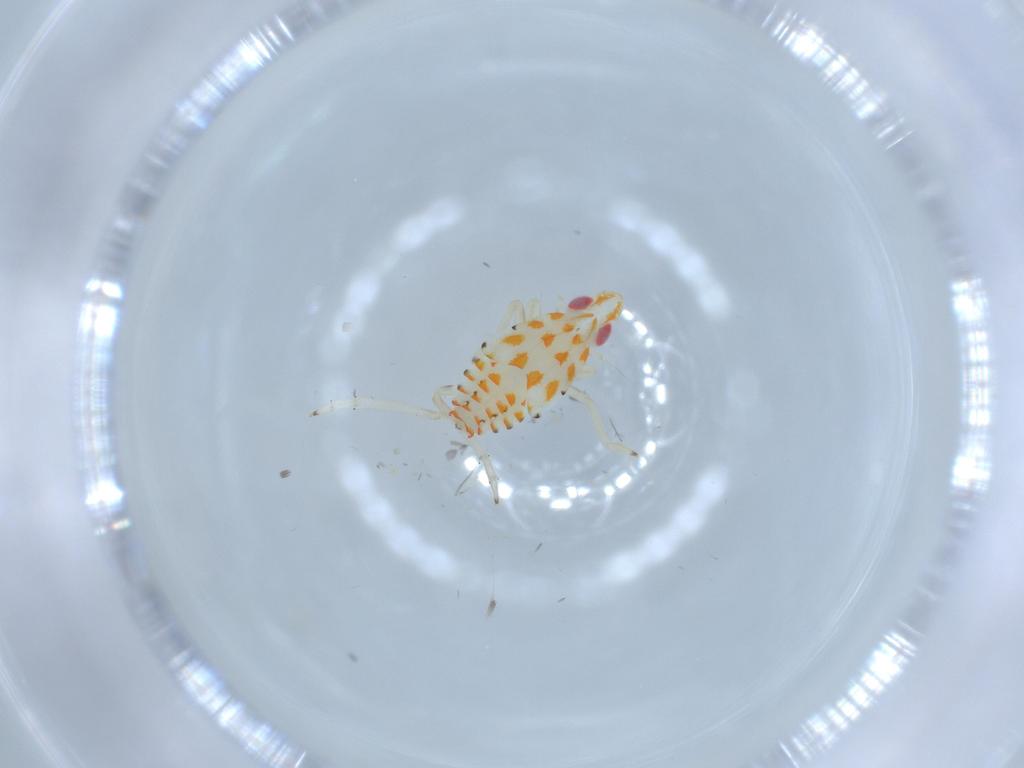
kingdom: Animalia
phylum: Arthropoda
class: Insecta
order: Hemiptera
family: Tropiduchidae
